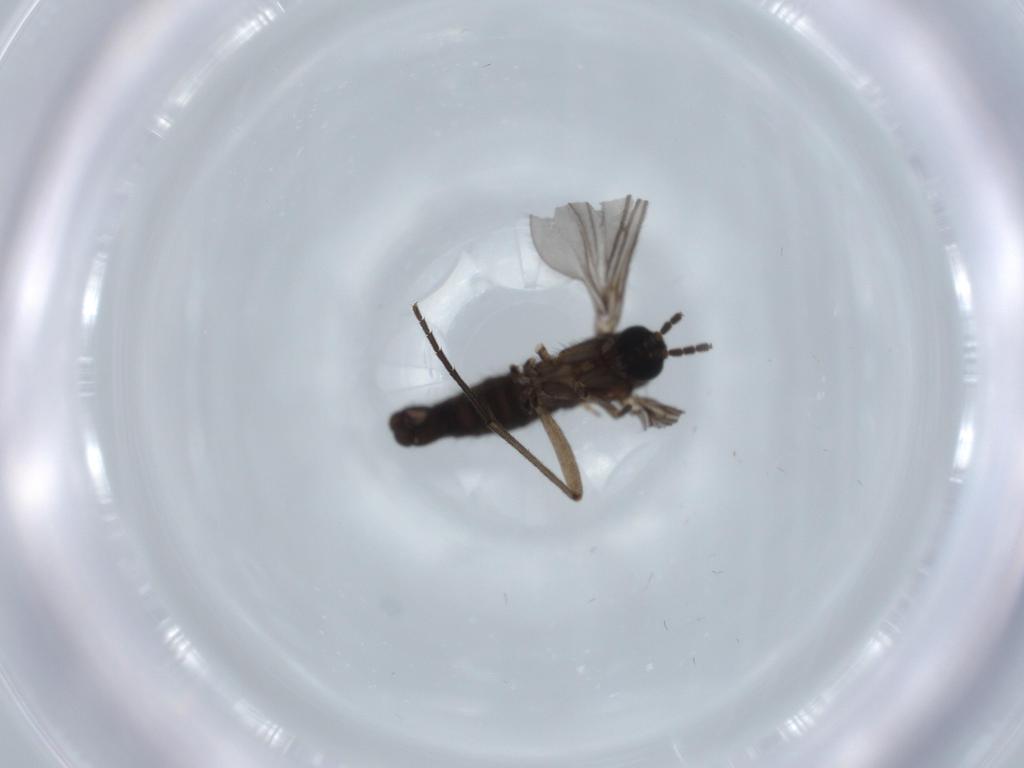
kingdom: Animalia
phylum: Arthropoda
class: Insecta
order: Diptera
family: Sciaridae
